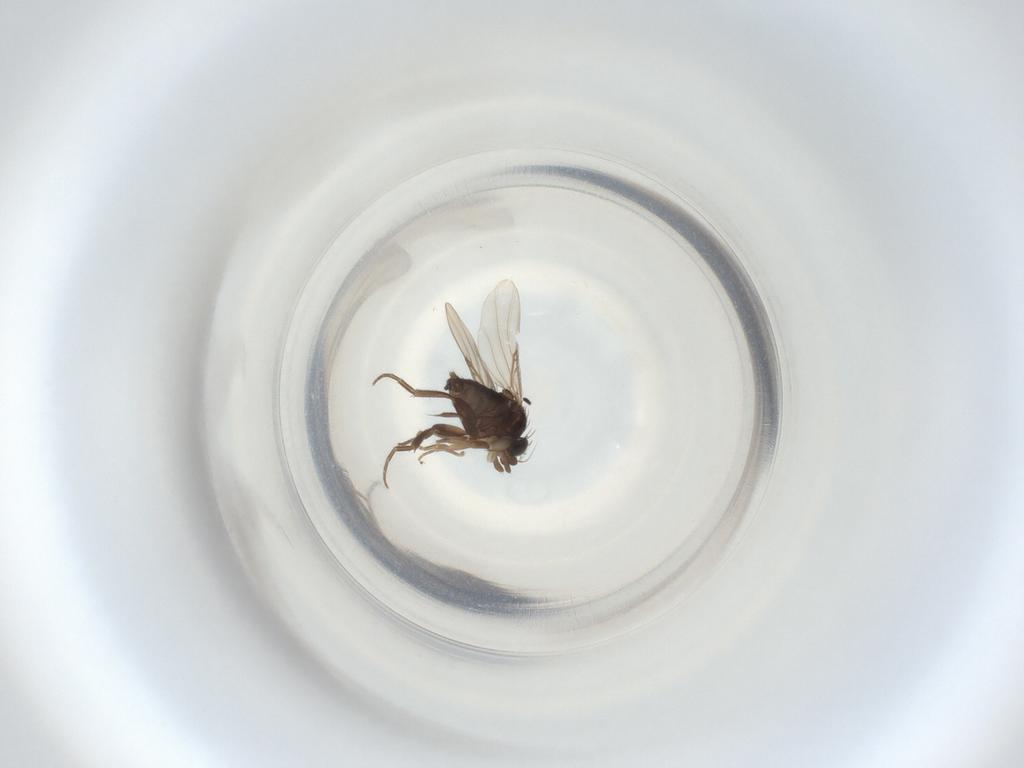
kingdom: Animalia
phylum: Arthropoda
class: Insecta
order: Diptera
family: Phoridae
